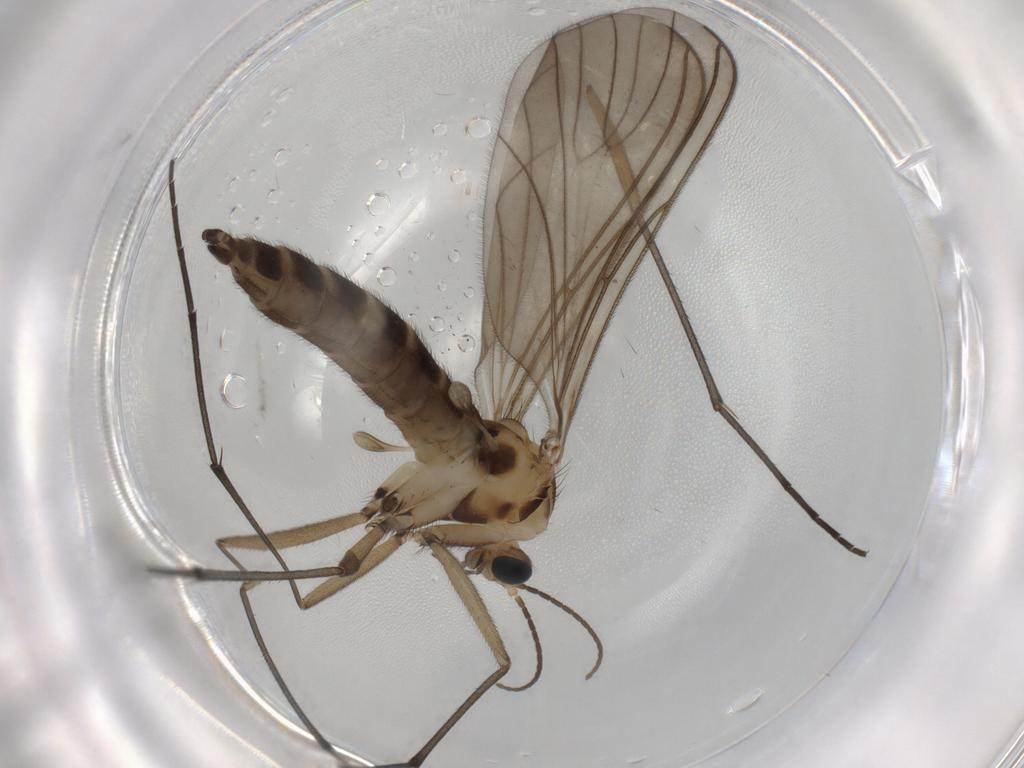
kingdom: Animalia
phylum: Arthropoda
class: Insecta
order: Diptera
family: Sciaridae
